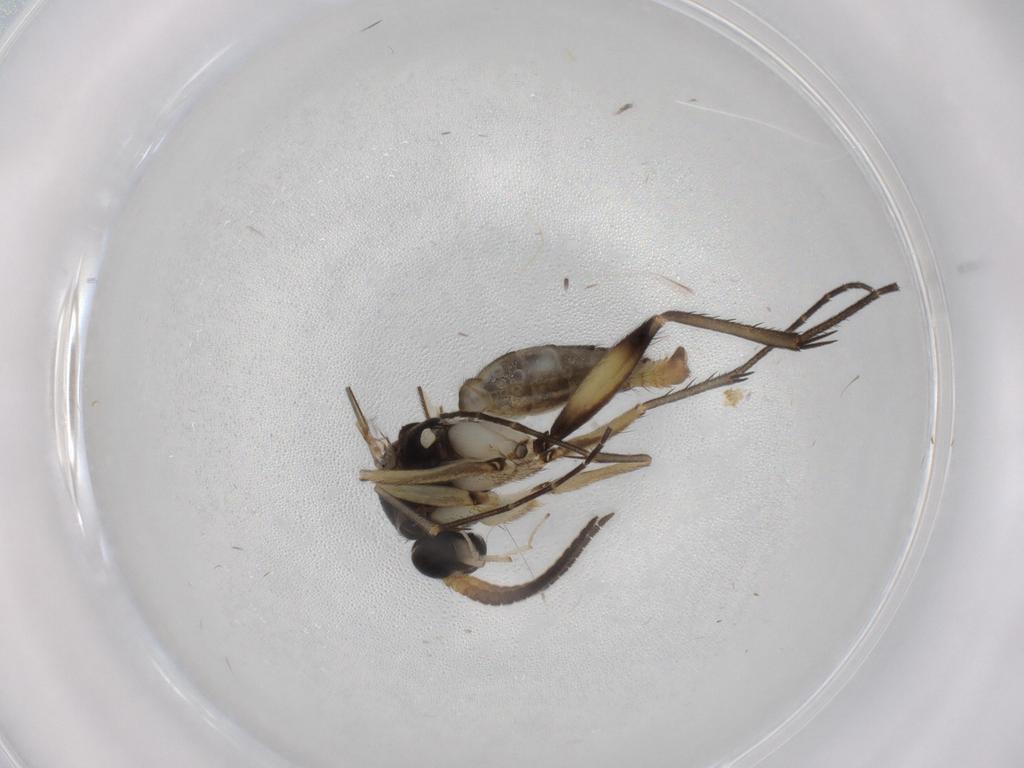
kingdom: Animalia
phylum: Arthropoda
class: Insecta
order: Diptera
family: Chironomidae
